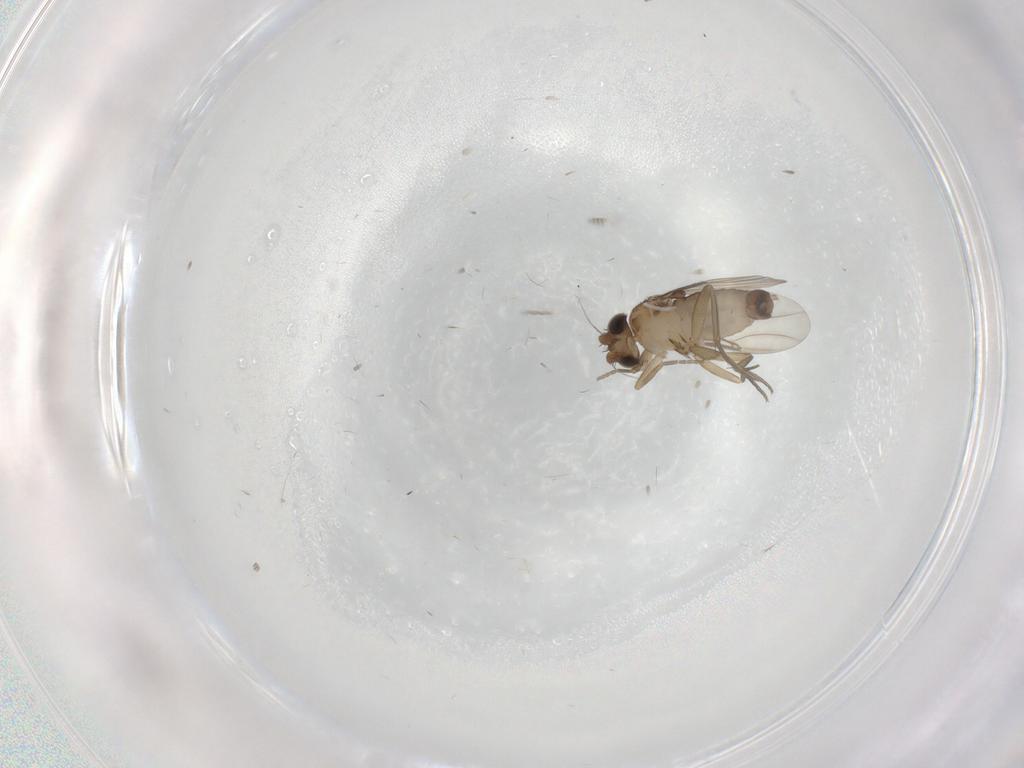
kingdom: Animalia
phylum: Arthropoda
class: Insecta
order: Diptera
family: Phoridae
